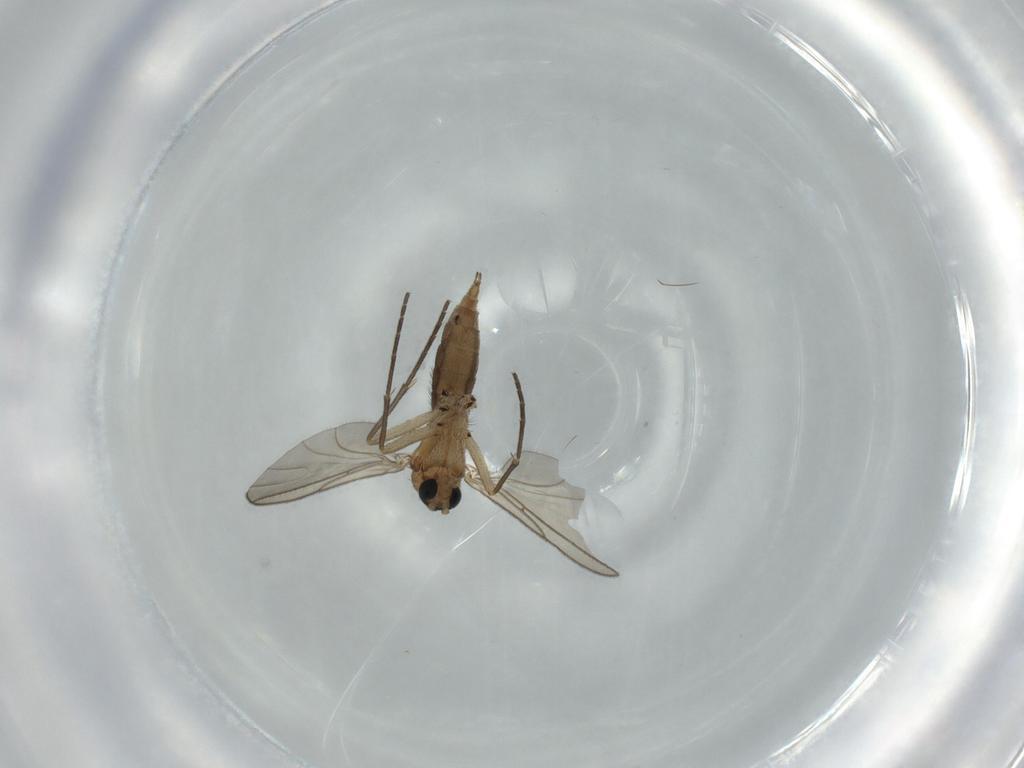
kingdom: Animalia
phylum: Arthropoda
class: Insecta
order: Diptera
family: Sciaridae
